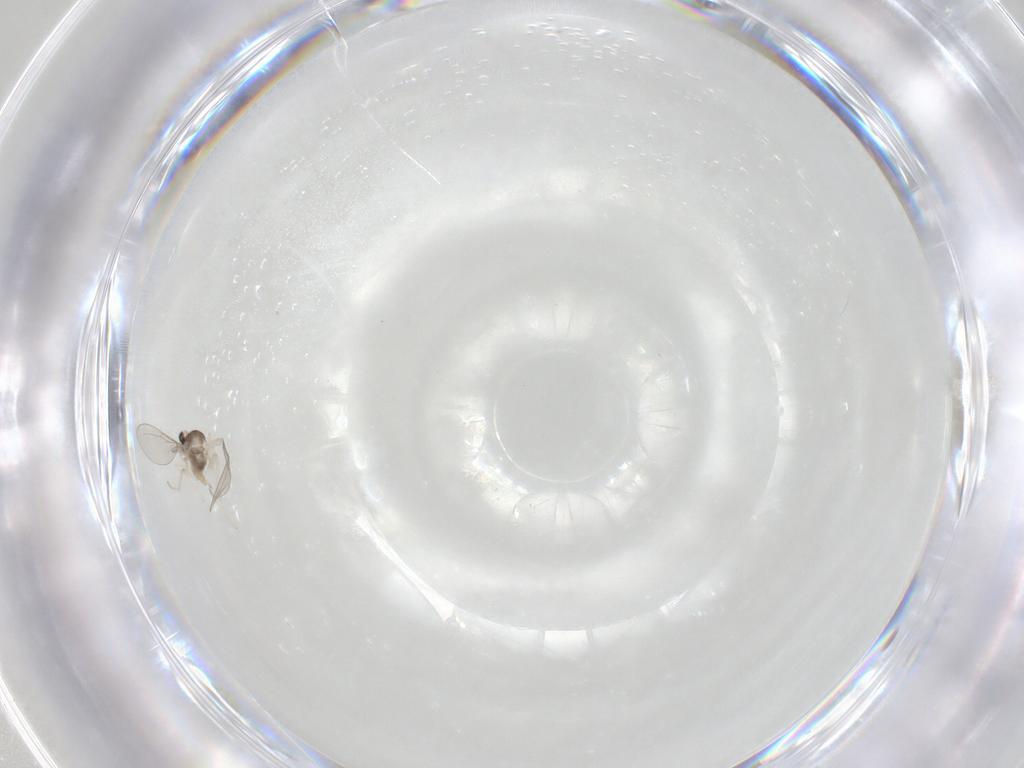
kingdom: Animalia
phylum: Arthropoda
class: Insecta
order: Diptera
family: Cecidomyiidae
